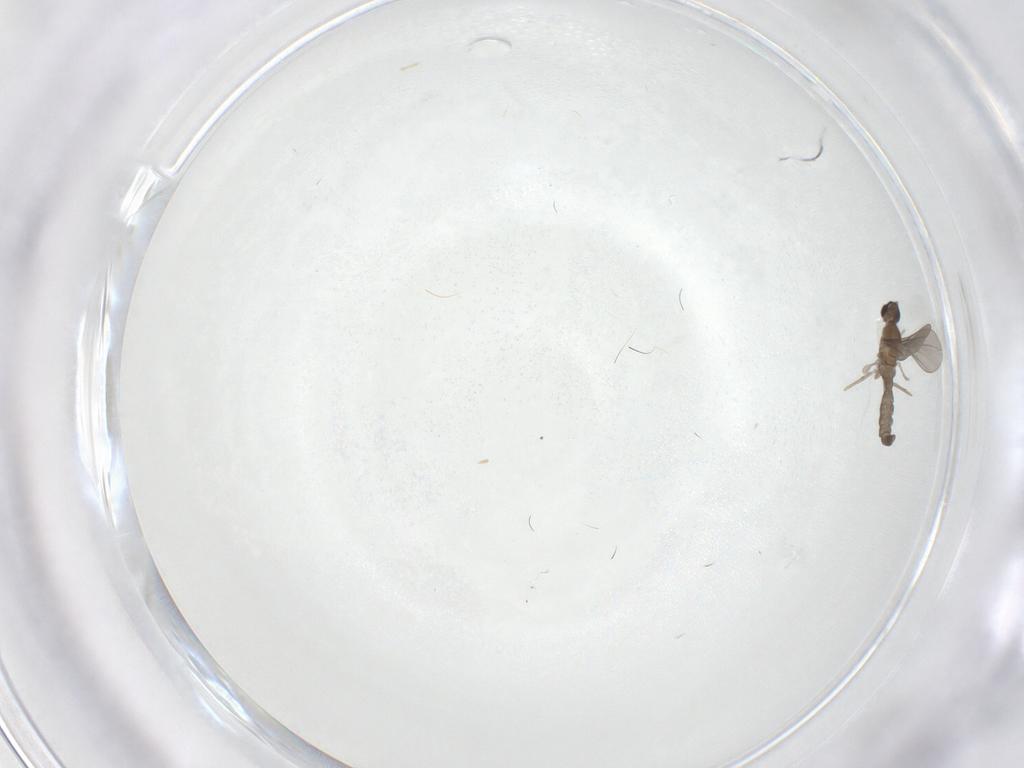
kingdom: Animalia
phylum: Arthropoda
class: Insecta
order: Diptera
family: Cecidomyiidae
